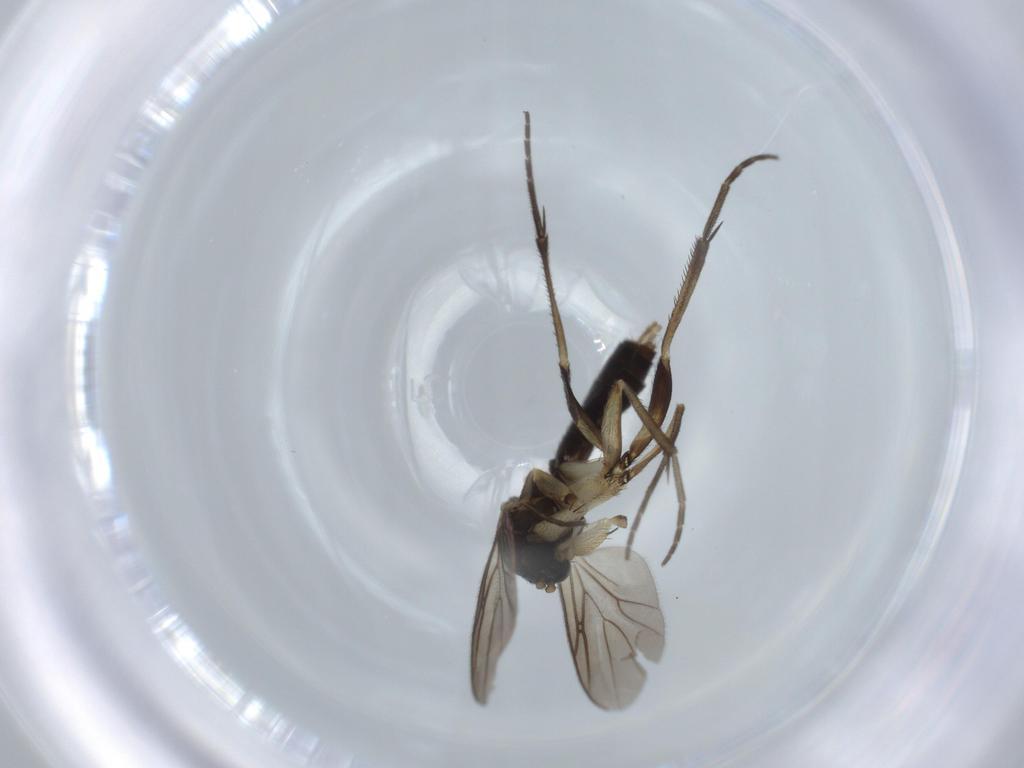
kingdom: Animalia
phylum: Arthropoda
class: Insecta
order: Diptera
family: Mycetophilidae
